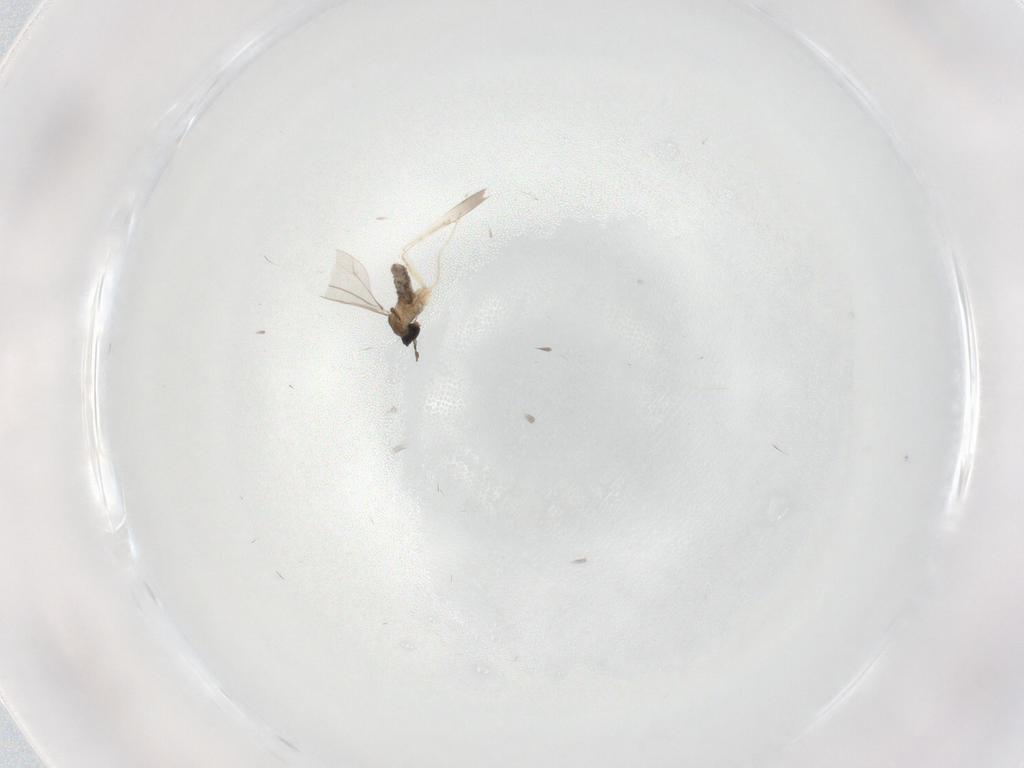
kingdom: Animalia
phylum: Arthropoda
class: Insecta
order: Diptera
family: Cecidomyiidae
